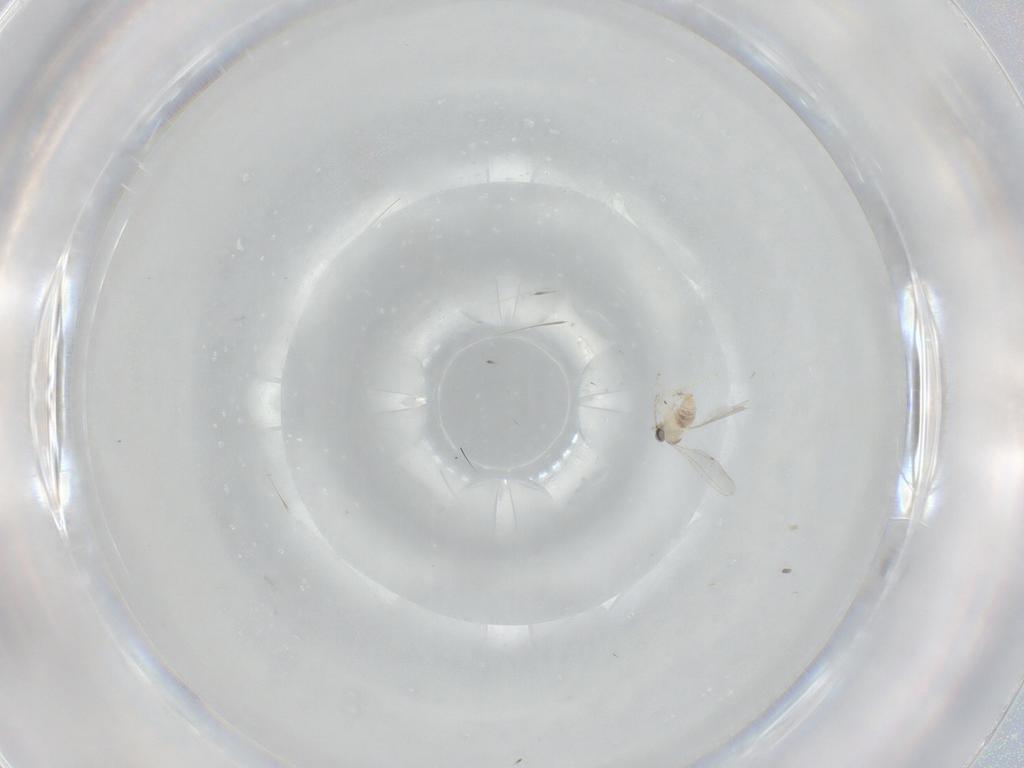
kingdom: Animalia
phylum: Arthropoda
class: Insecta
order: Diptera
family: Cecidomyiidae
